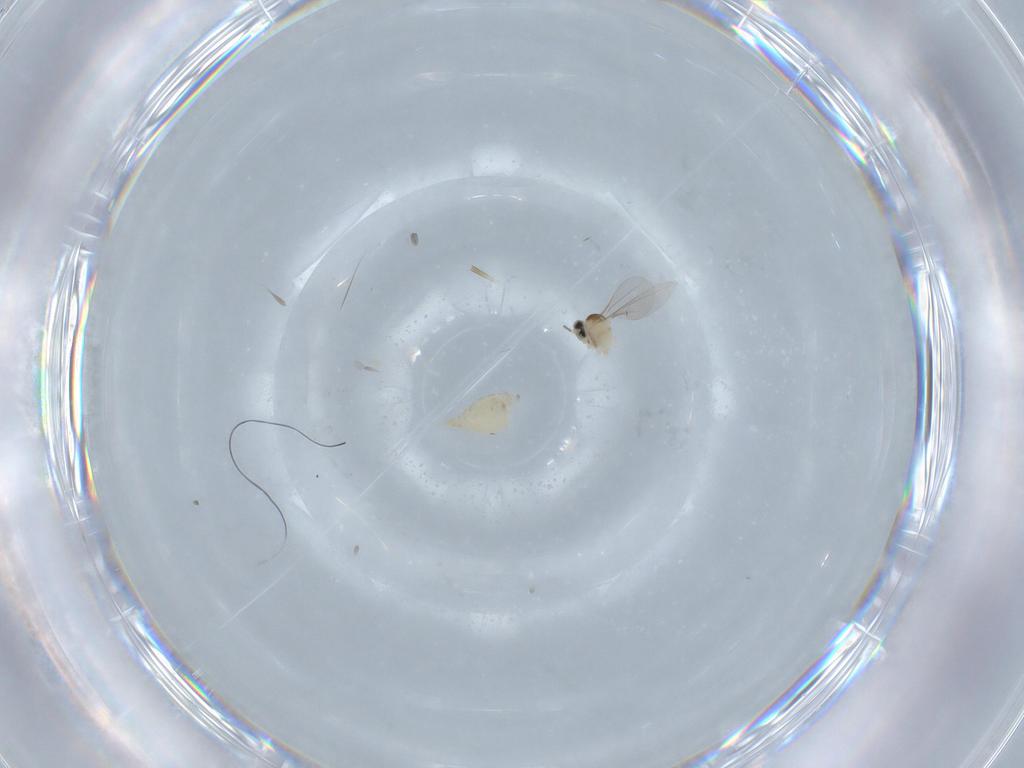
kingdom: Animalia
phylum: Arthropoda
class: Insecta
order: Diptera
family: Cecidomyiidae
